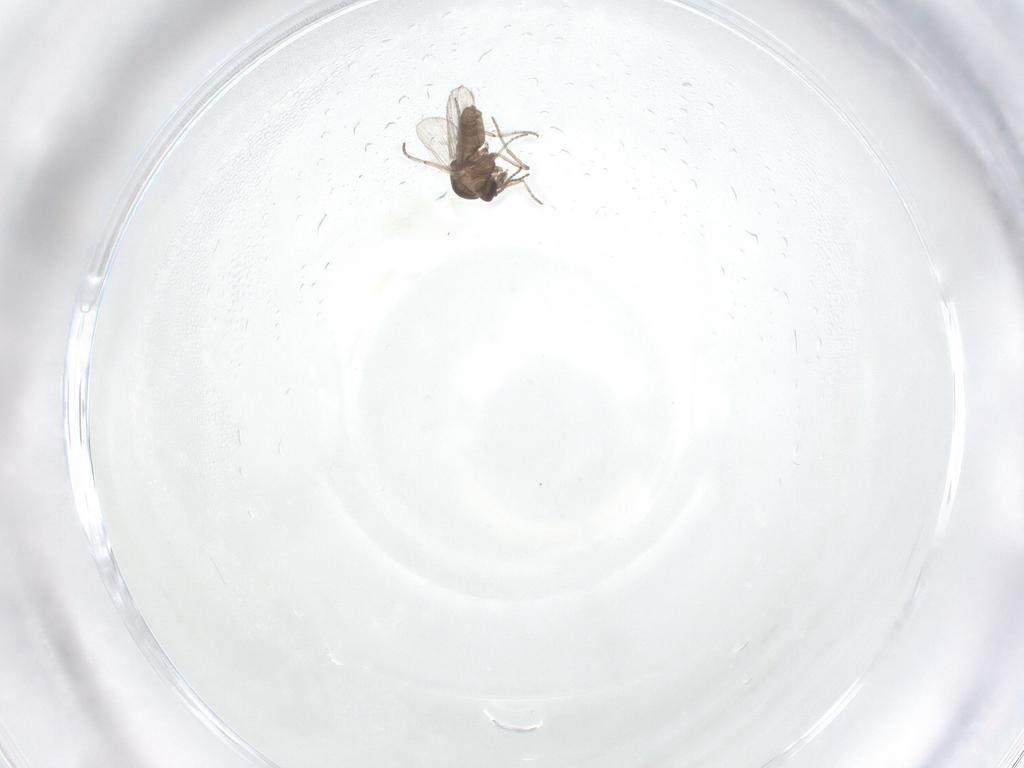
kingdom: Animalia
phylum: Arthropoda
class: Insecta
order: Diptera
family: Ceratopogonidae
